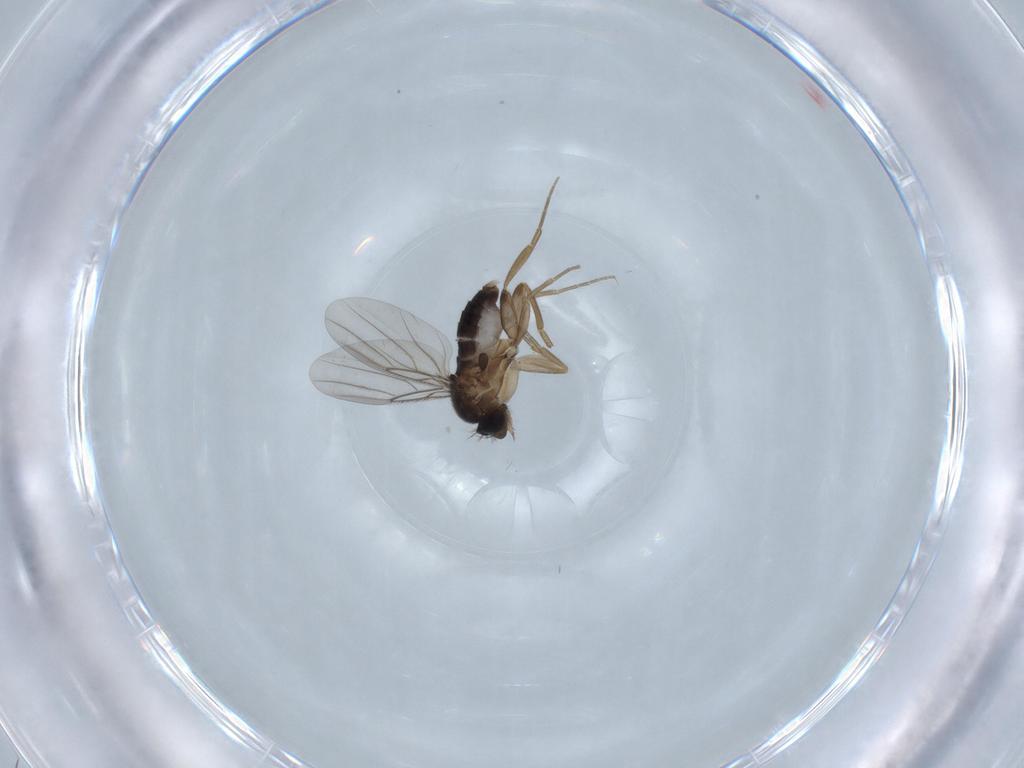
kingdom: Animalia
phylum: Arthropoda
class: Insecta
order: Diptera
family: Phoridae
